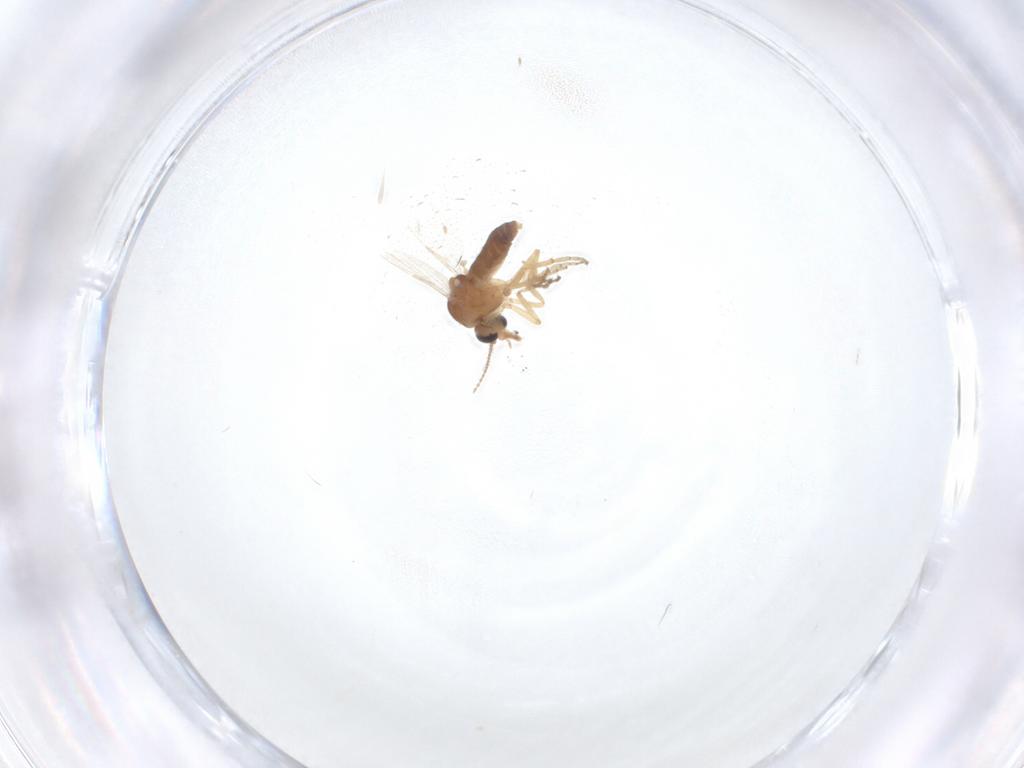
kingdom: Animalia
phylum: Arthropoda
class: Insecta
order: Diptera
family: Ceratopogonidae
